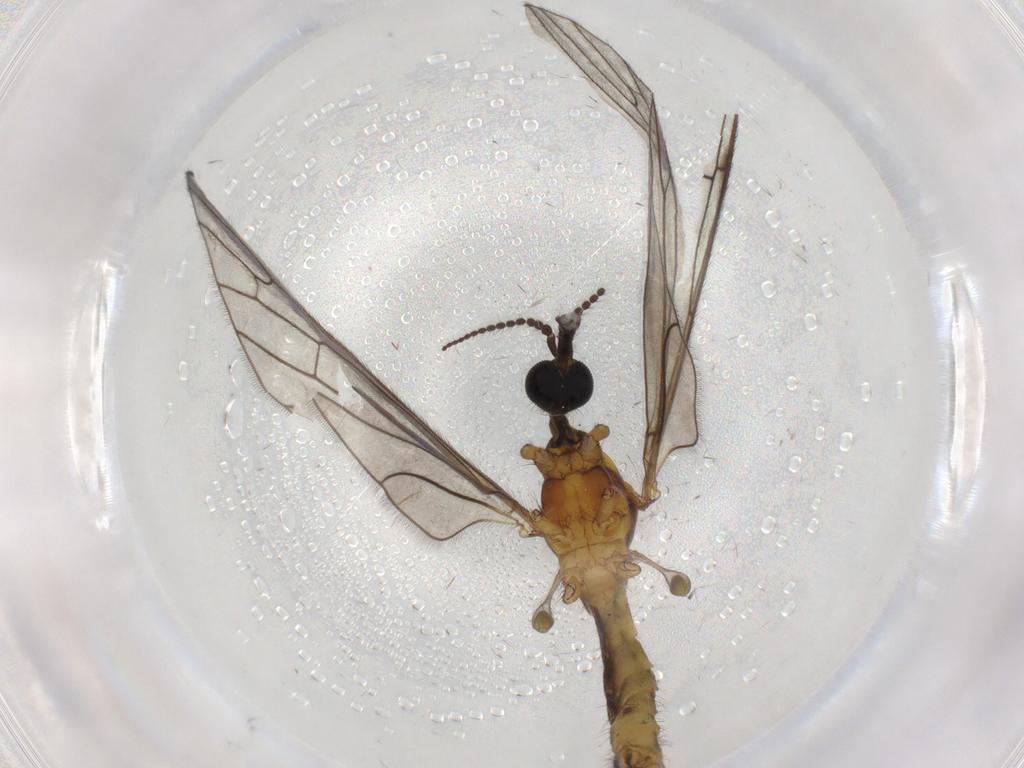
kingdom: Animalia
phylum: Arthropoda
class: Insecta
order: Diptera
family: Limoniidae
